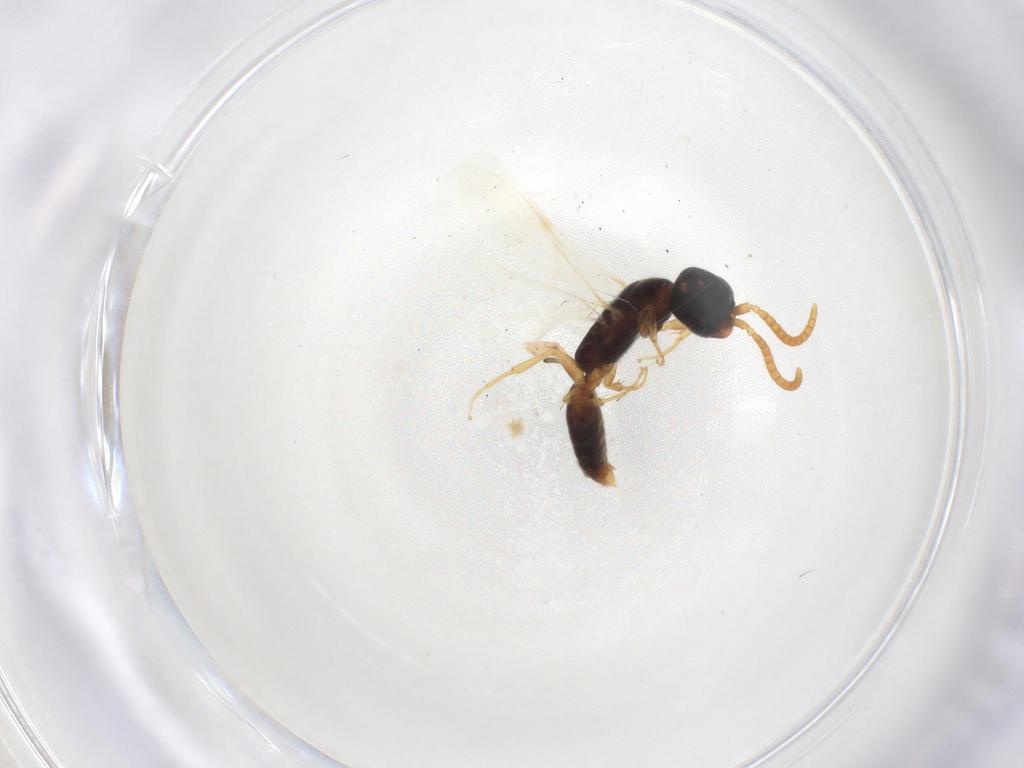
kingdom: Animalia
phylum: Arthropoda
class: Insecta
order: Hymenoptera
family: Bethylidae
